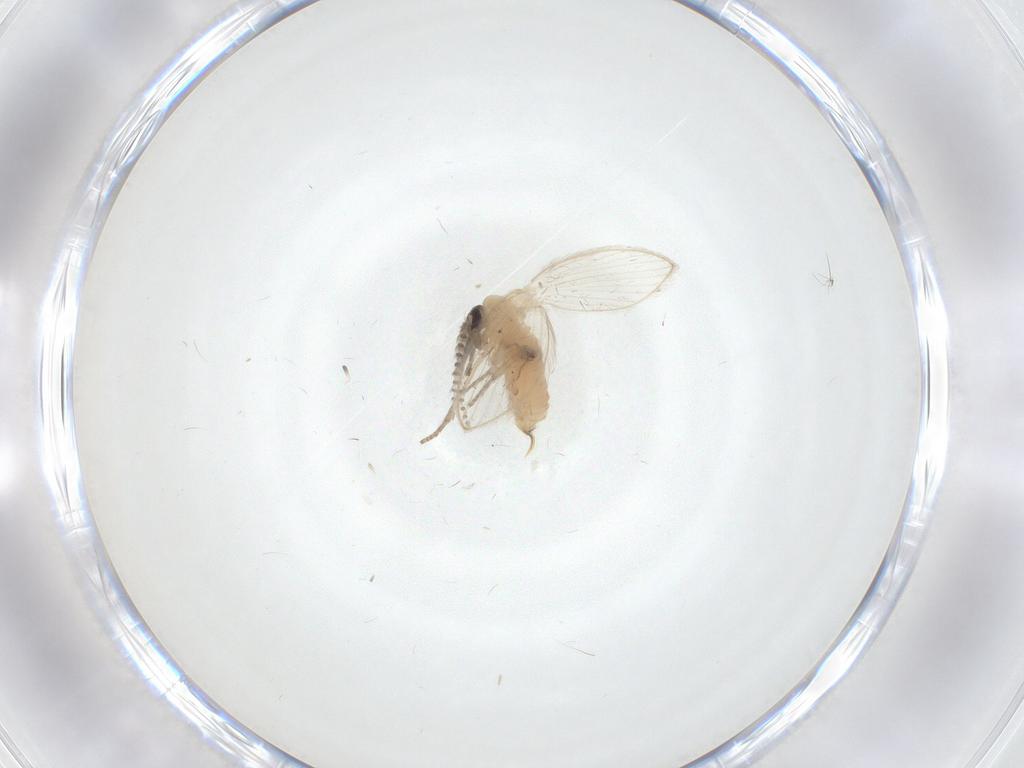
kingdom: Animalia
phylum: Arthropoda
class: Insecta
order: Diptera
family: Psychodidae
